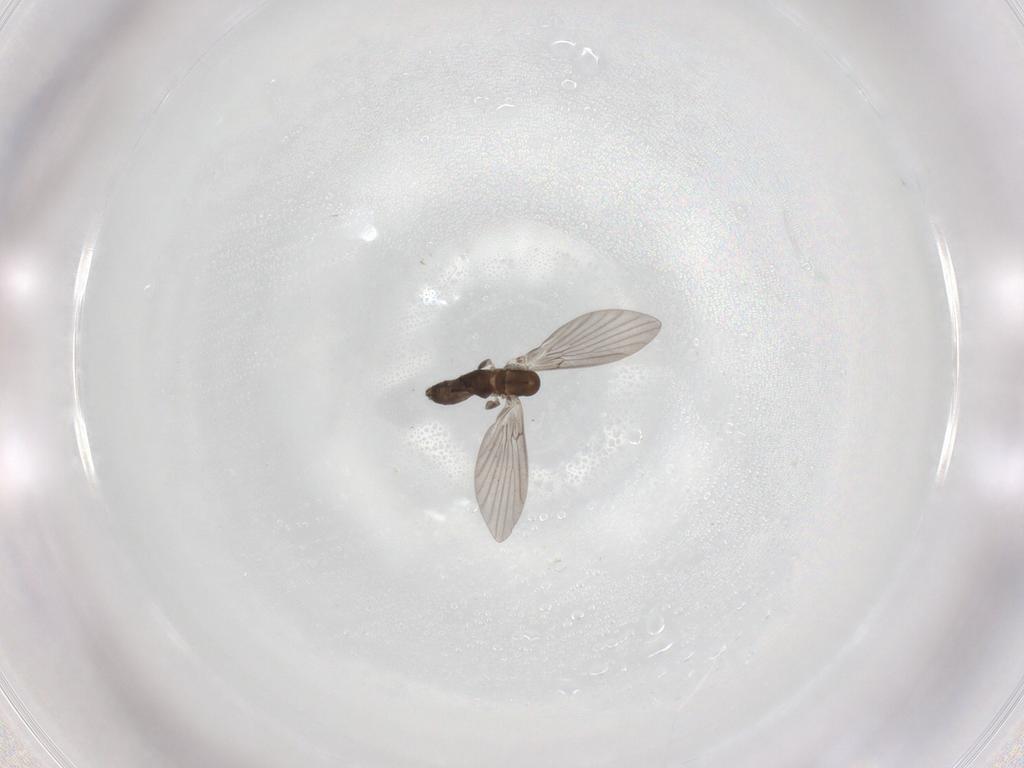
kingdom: Animalia
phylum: Arthropoda
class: Insecta
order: Diptera
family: Psychodidae
